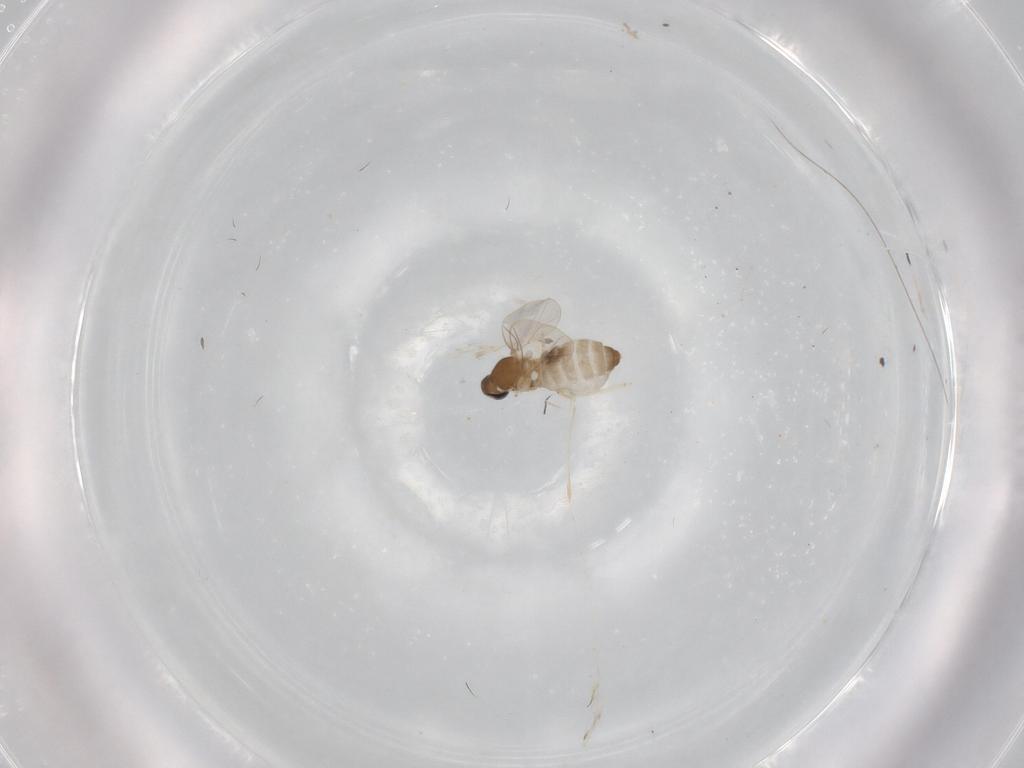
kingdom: Animalia
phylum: Arthropoda
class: Insecta
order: Diptera
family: Cecidomyiidae
